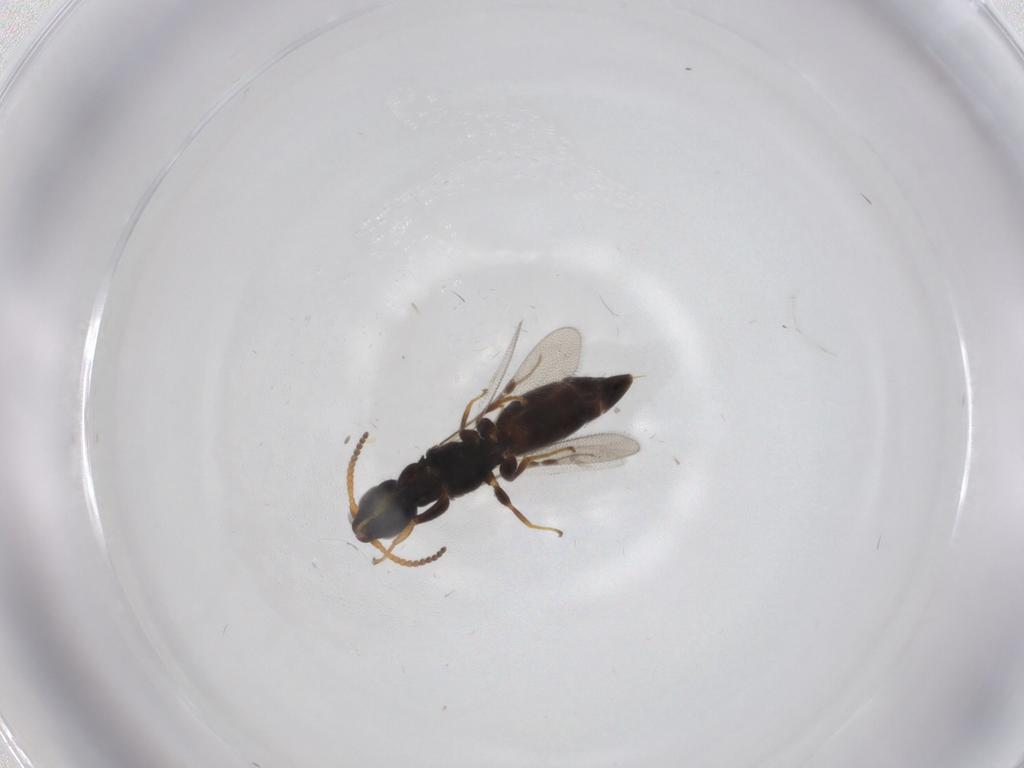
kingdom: Animalia
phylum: Arthropoda
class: Insecta
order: Hymenoptera
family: Bethylidae
